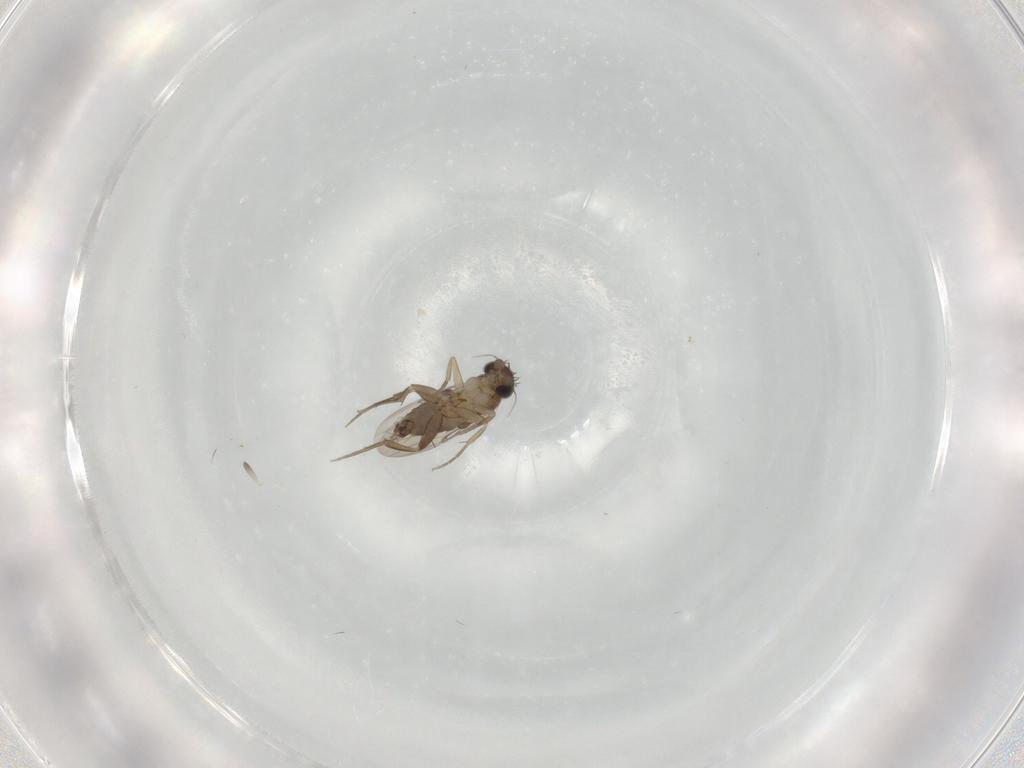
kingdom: Animalia
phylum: Arthropoda
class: Insecta
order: Diptera
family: Phoridae
